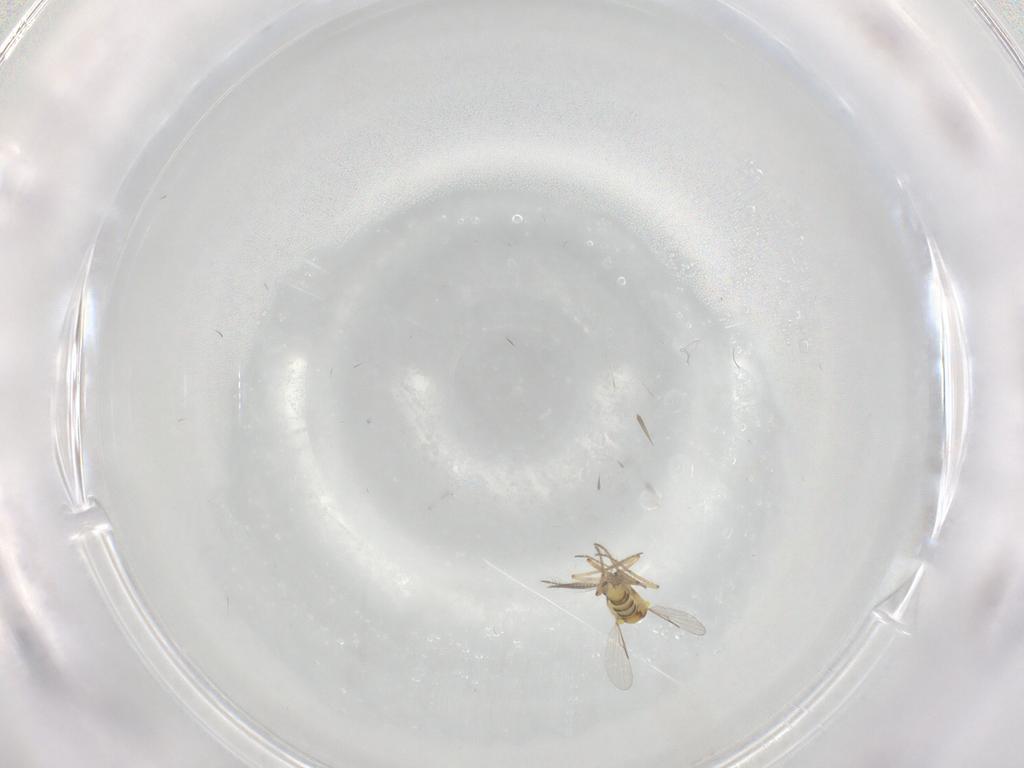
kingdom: Animalia
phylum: Arthropoda
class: Insecta
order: Diptera
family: Ceratopogonidae
